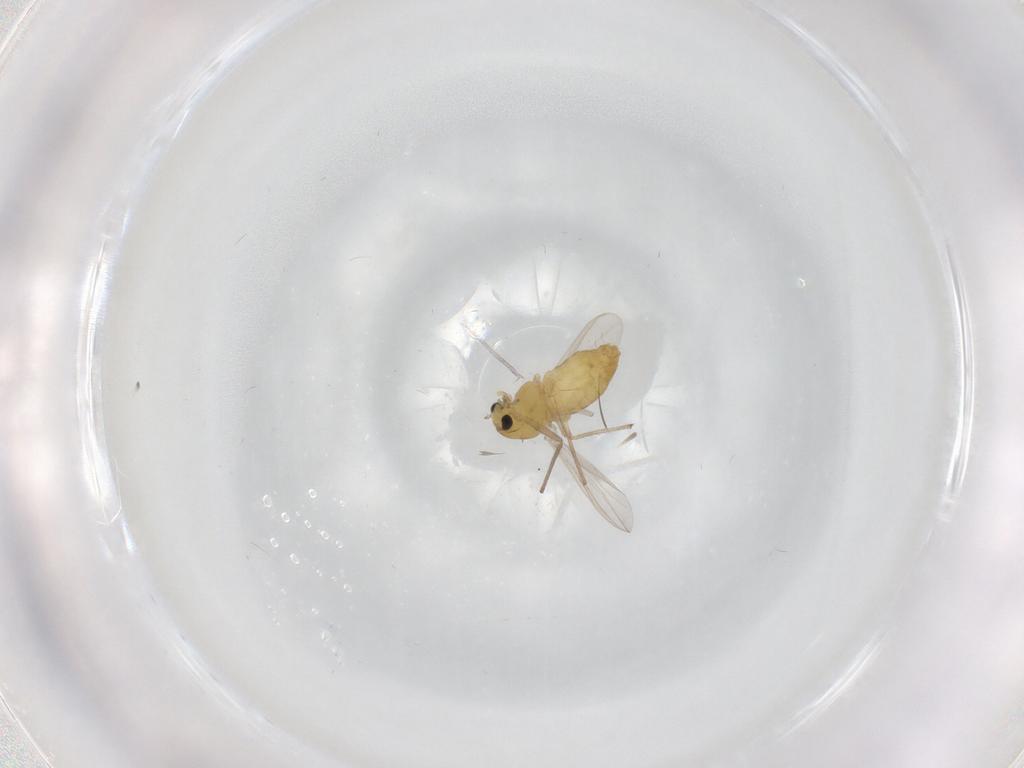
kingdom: Animalia
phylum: Arthropoda
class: Insecta
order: Diptera
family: Chironomidae
